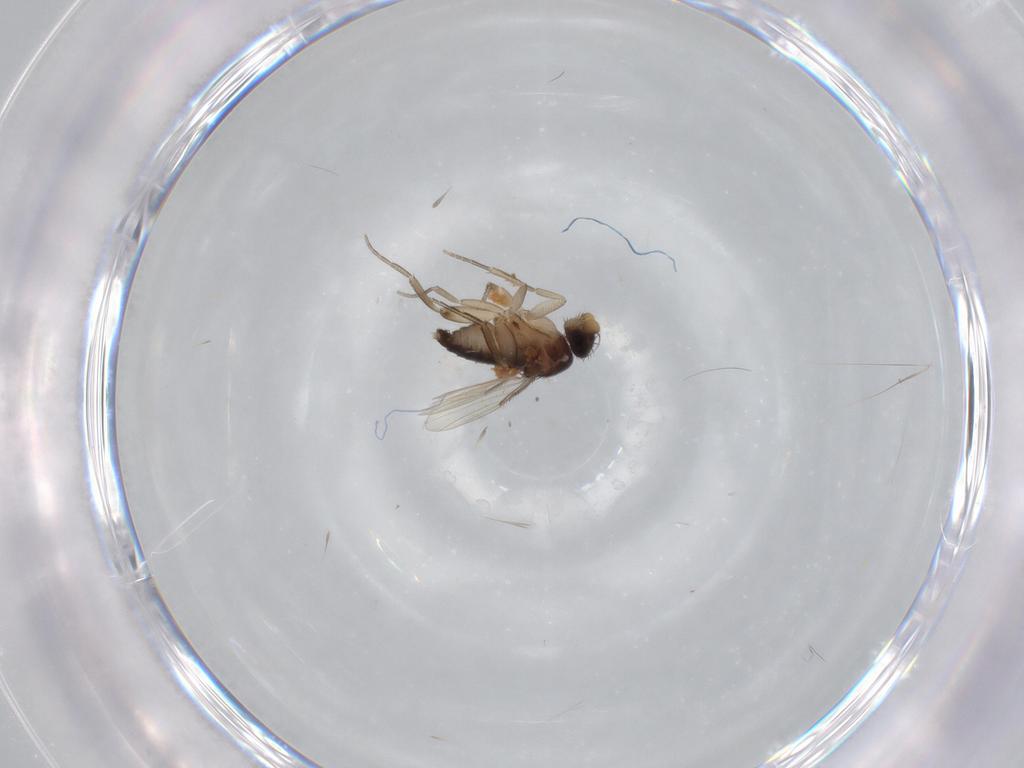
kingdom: Animalia
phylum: Arthropoda
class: Insecta
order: Diptera
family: Phoridae
